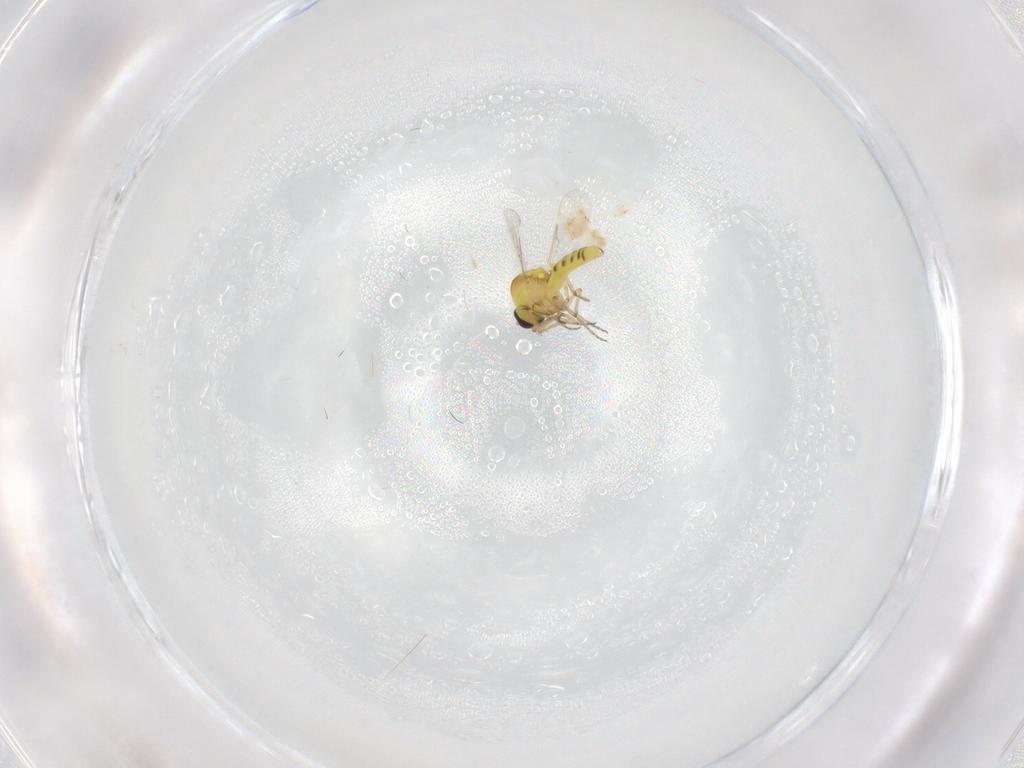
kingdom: Animalia
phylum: Arthropoda
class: Insecta
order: Diptera
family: Ceratopogonidae
